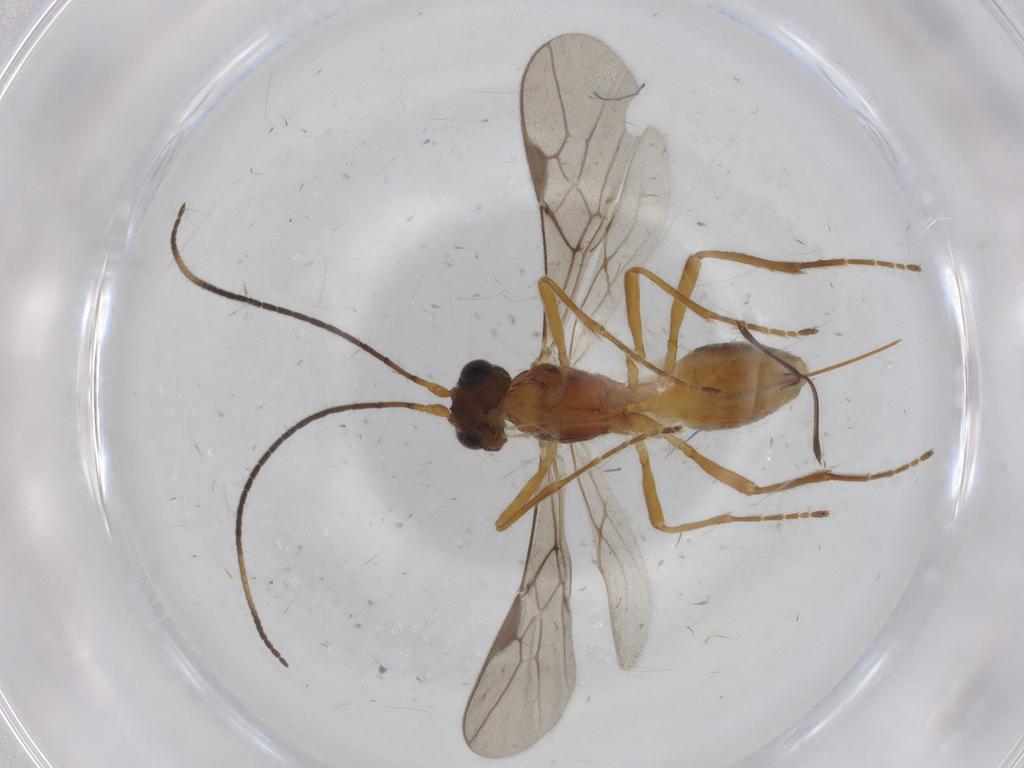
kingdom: Animalia
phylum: Arthropoda
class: Insecta
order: Hymenoptera
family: Braconidae
